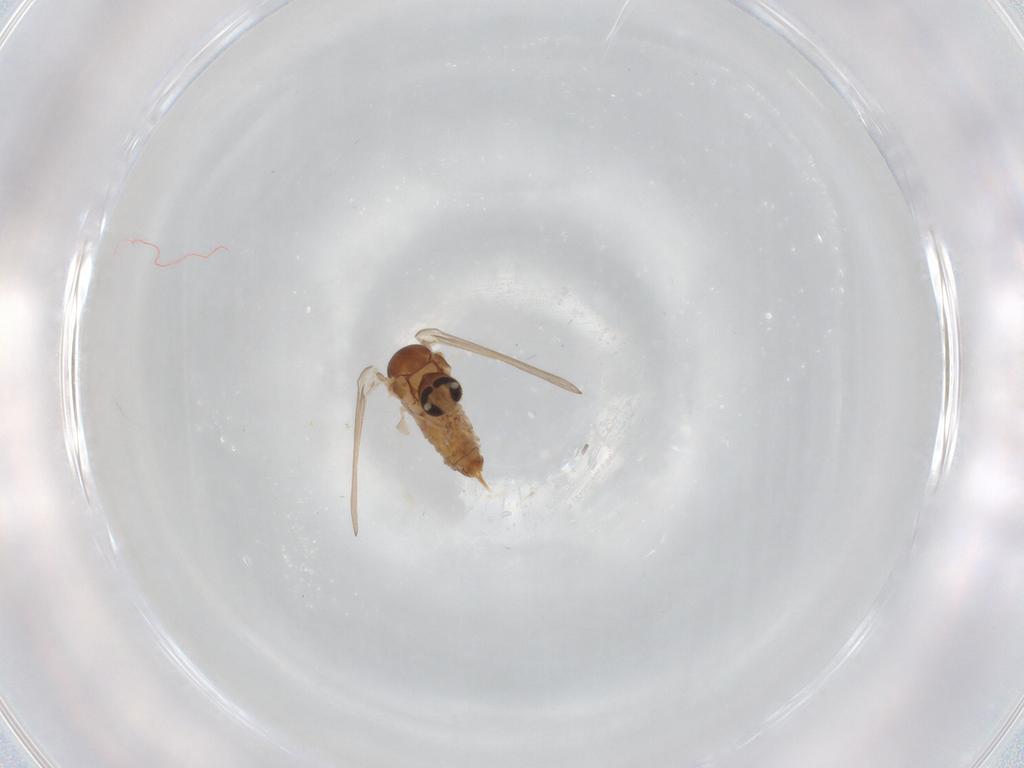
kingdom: Animalia
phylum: Arthropoda
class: Insecta
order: Diptera
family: Psychodidae
